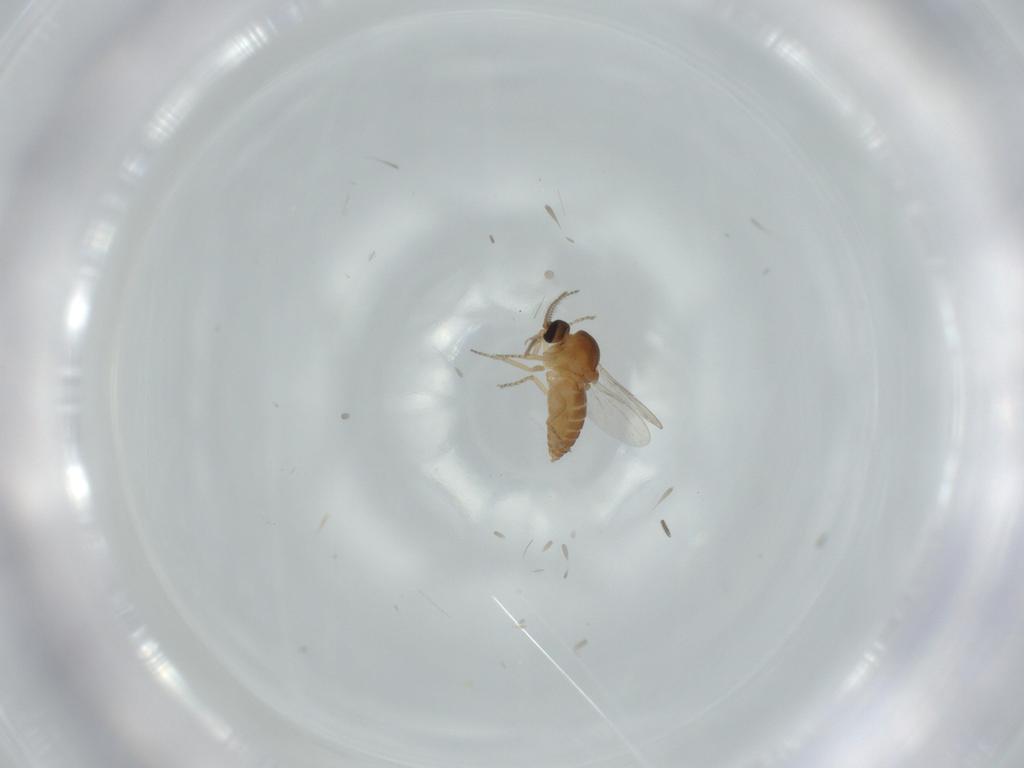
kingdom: Animalia
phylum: Arthropoda
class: Insecta
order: Diptera
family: Ceratopogonidae
